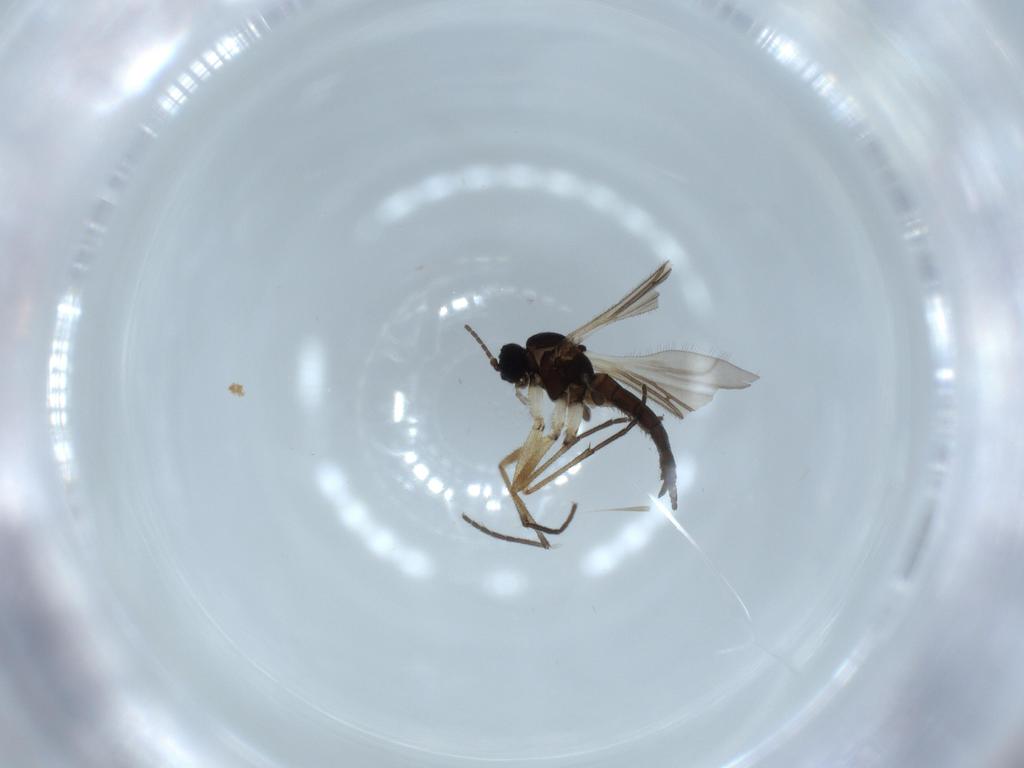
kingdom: Animalia
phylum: Arthropoda
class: Insecta
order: Diptera
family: Sciaridae
